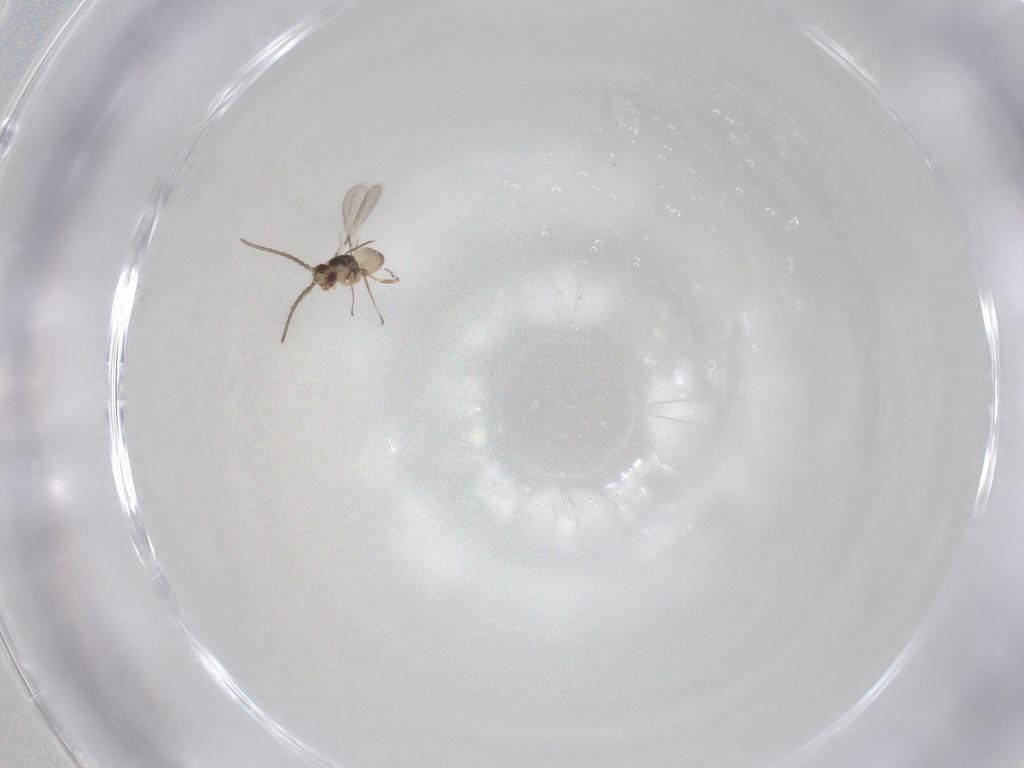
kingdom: Animalia
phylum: Arthropoda
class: Insecta
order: Hymenoptera
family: Mymaridae
